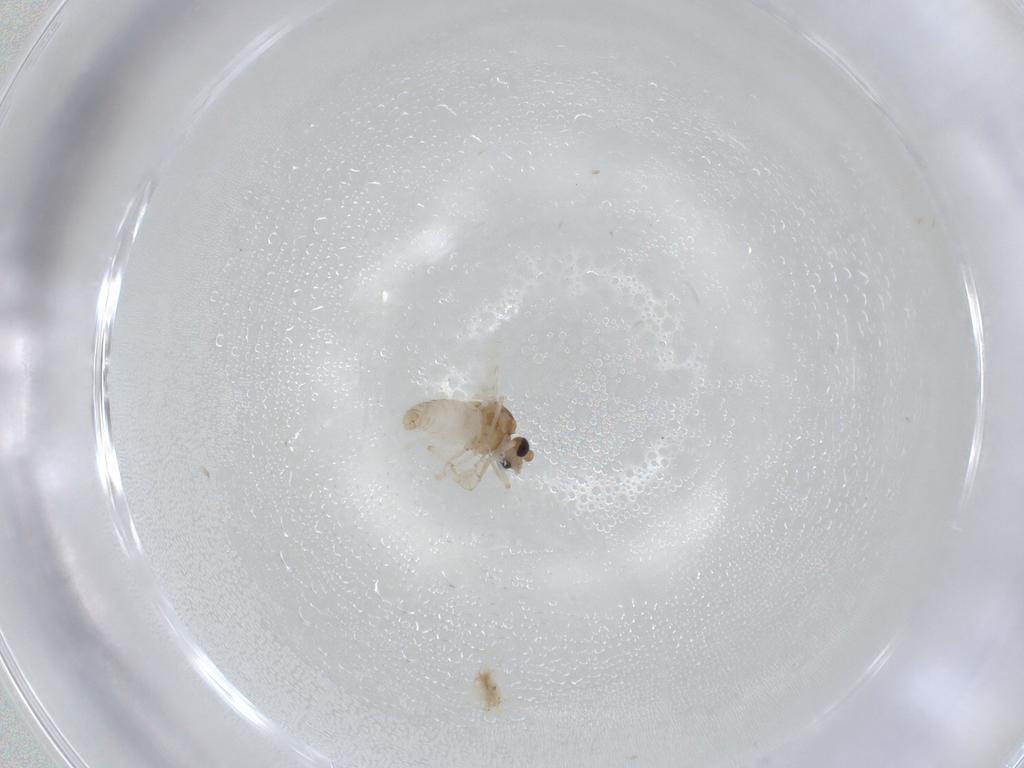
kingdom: Animalia
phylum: Arthropoda
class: Insecta
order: Diptera
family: Ceratopogonidae
